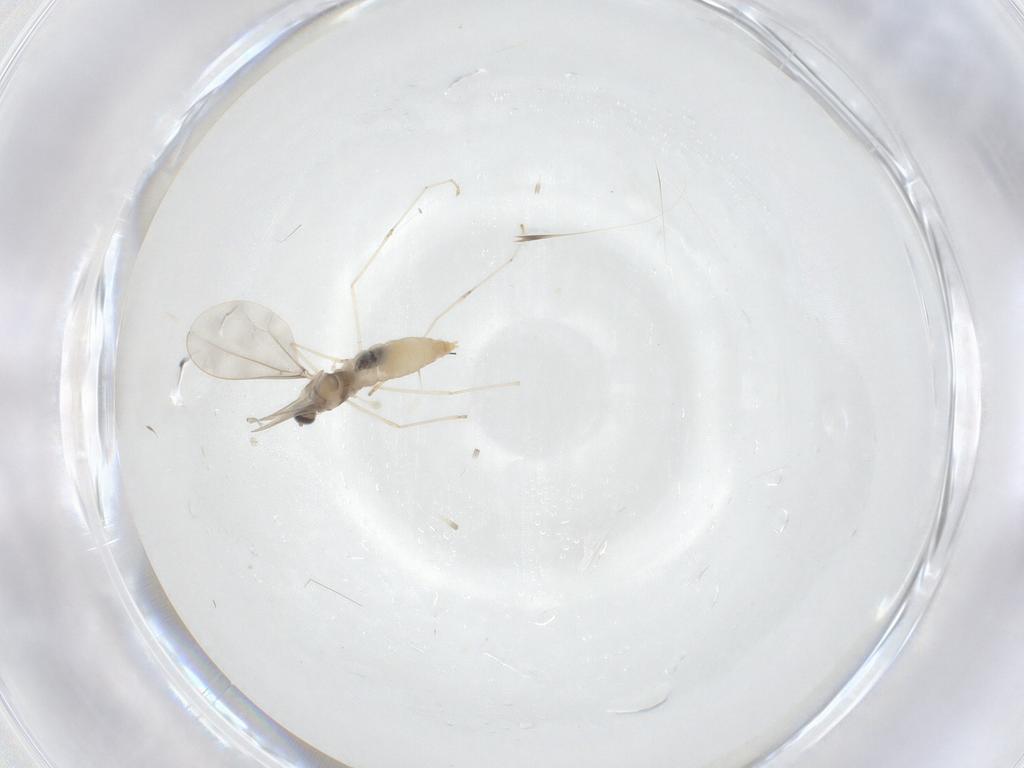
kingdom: Animalia
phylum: Arthropoda
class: Insecta
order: Diptera
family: Cecidomyiidae
